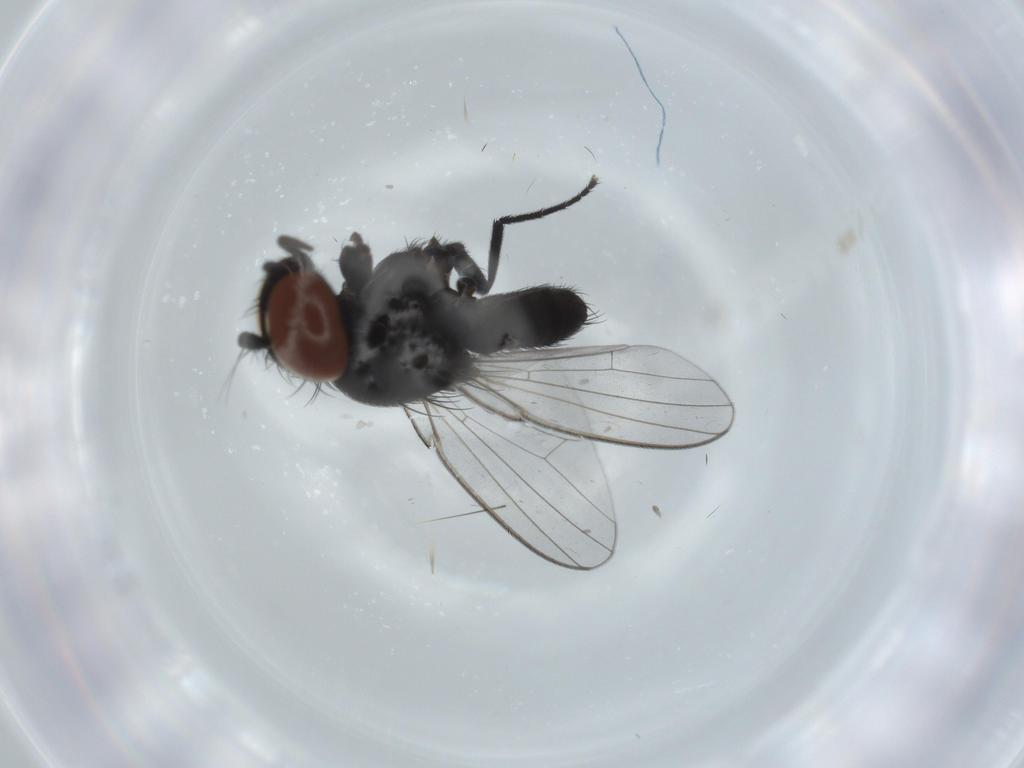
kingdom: Animalia
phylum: Arthropoda
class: Insecta
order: Diptera
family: Milichiidae
